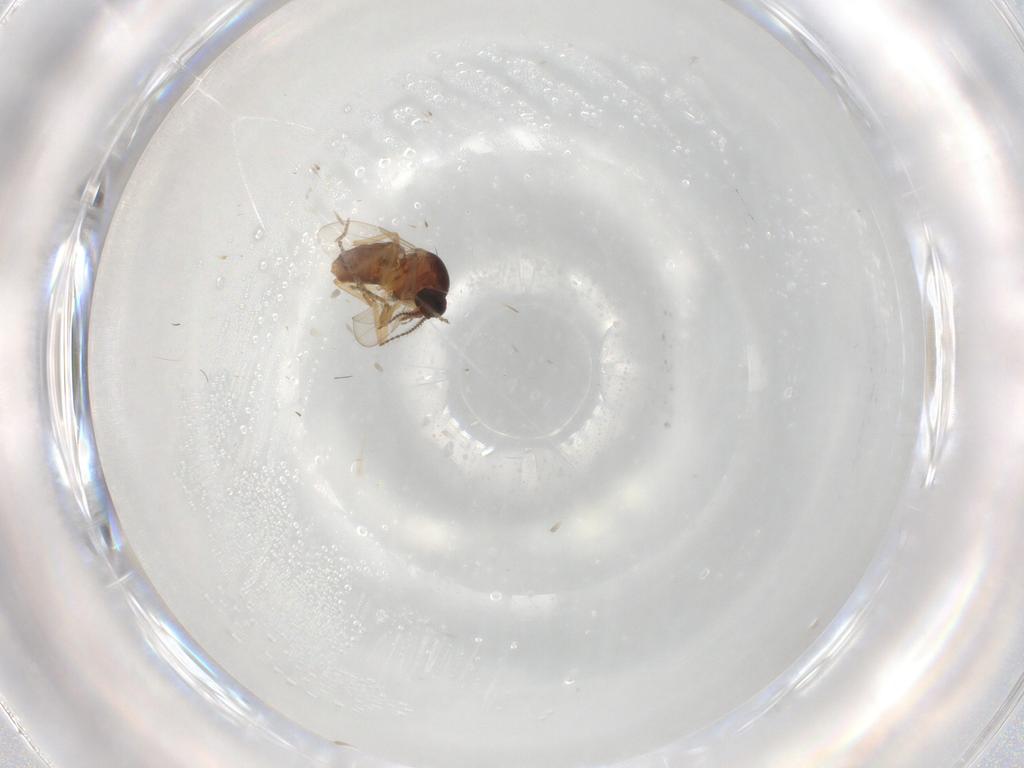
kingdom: Animalia
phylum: Arthropoda
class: Insecta
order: Diptera
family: Ceratopogonidae
